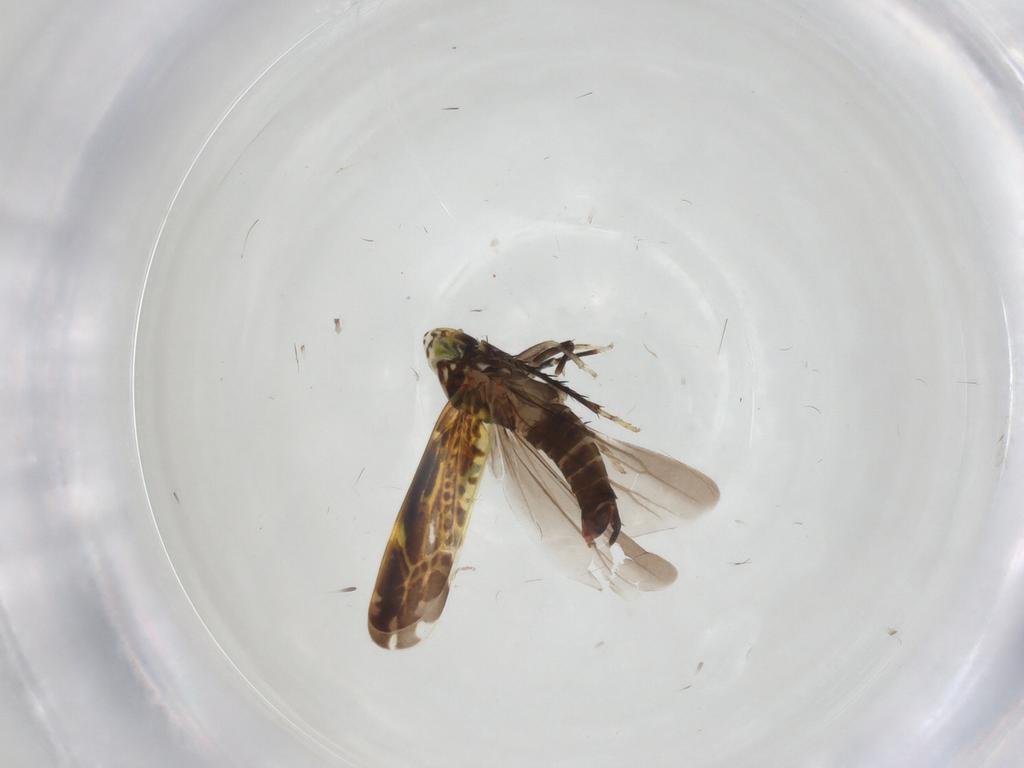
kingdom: Animalia
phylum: Arthropoda
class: Insecta
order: Hemiptera
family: Cicadellidae
